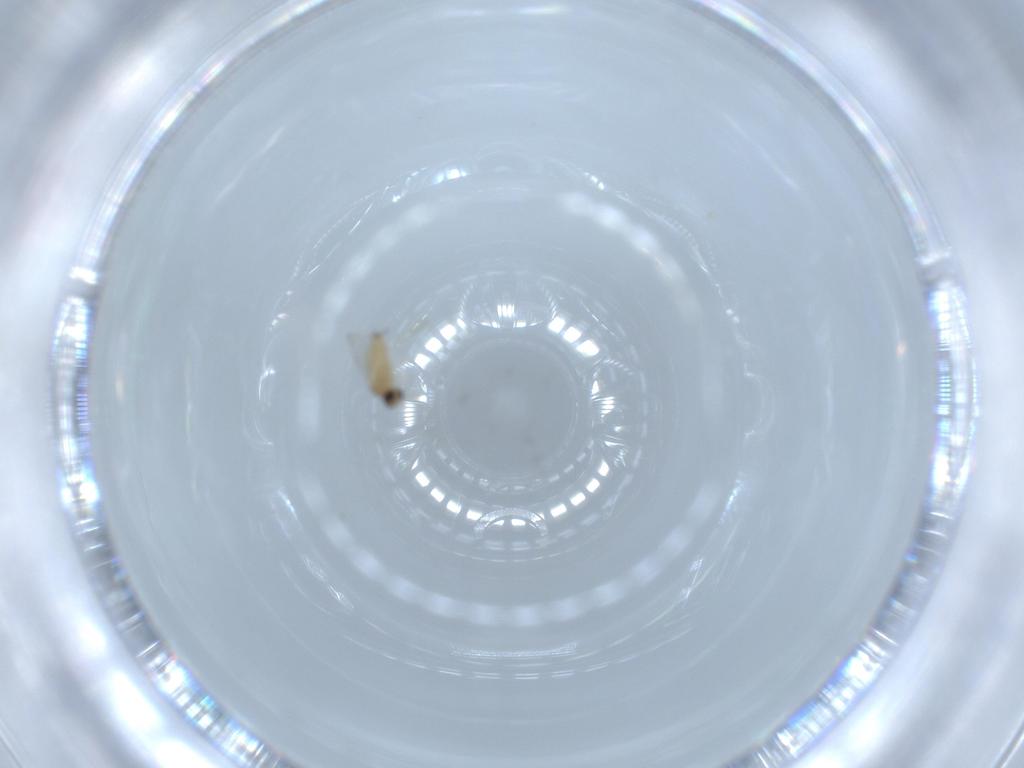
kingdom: Animalia
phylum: Arthropoda
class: Insecta
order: Diptera
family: Cecidomyiidae
